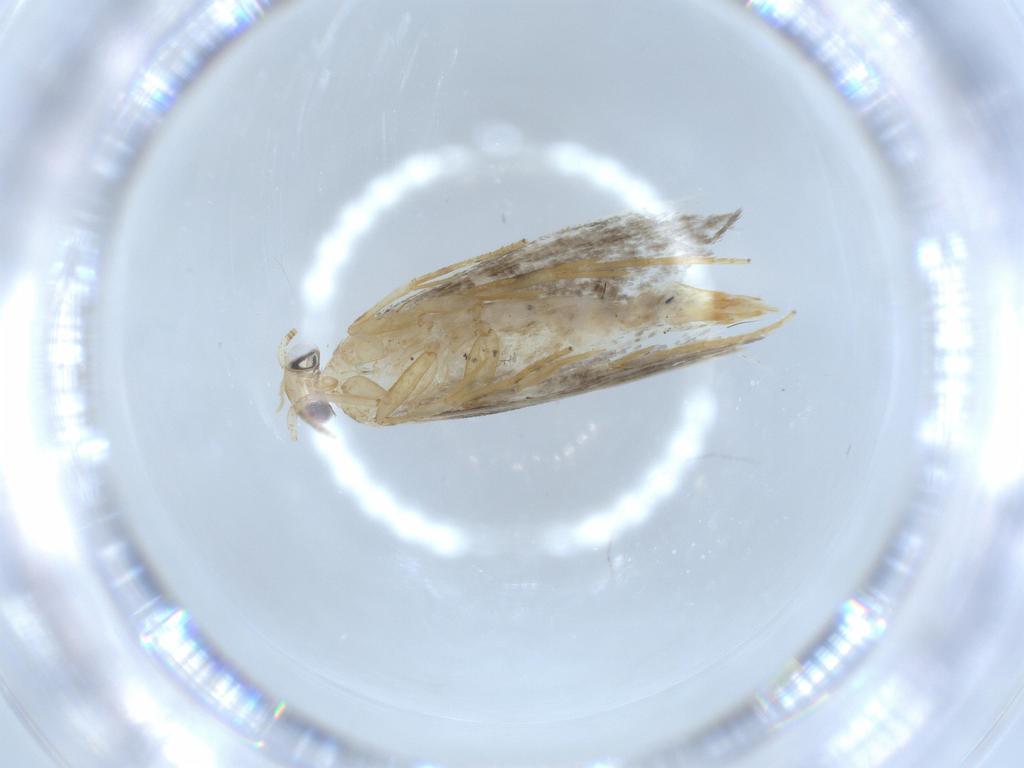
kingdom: Animalia
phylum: Arthropoda
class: Insecta
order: Lepidoptera
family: Tineidae
